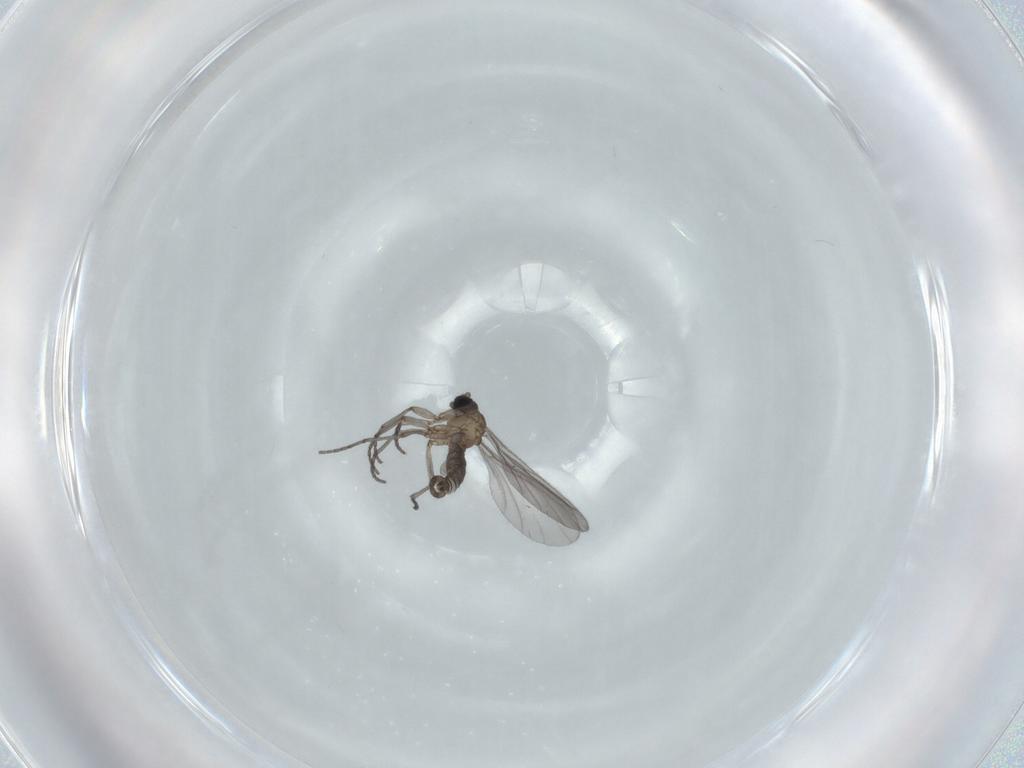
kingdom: Animalia
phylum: Arthropoda
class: Insecta
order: Diptera
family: Sciaridae
